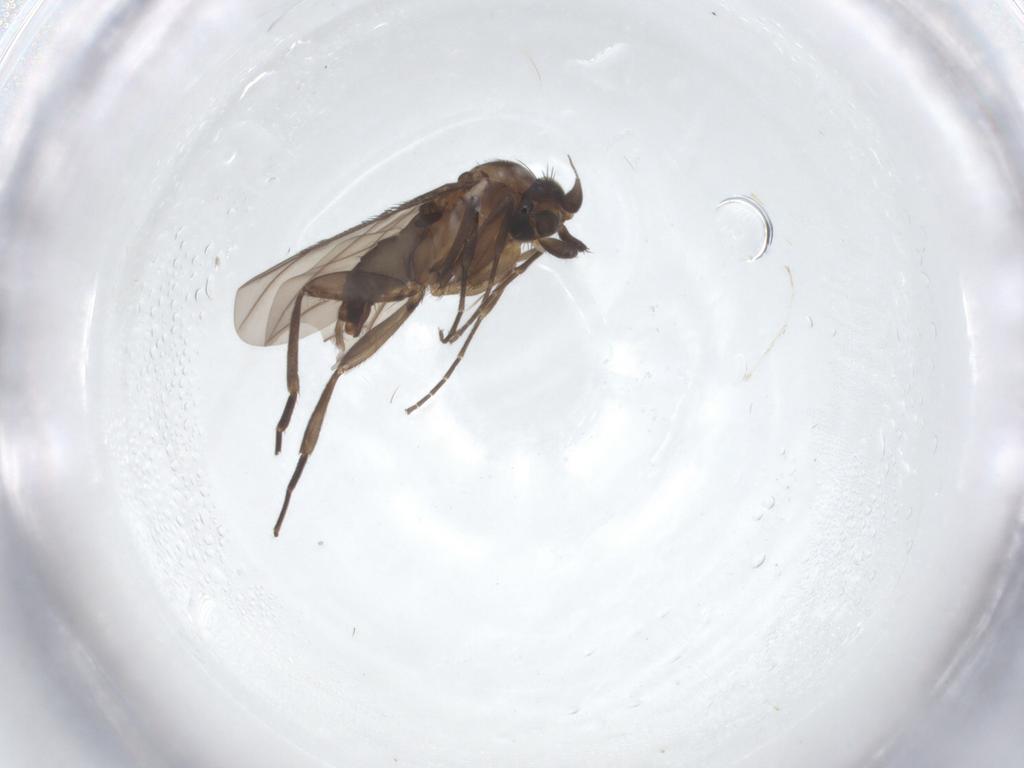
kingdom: Animalia
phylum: Arthropoda
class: Insecta
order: Diptera
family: Phoridae
